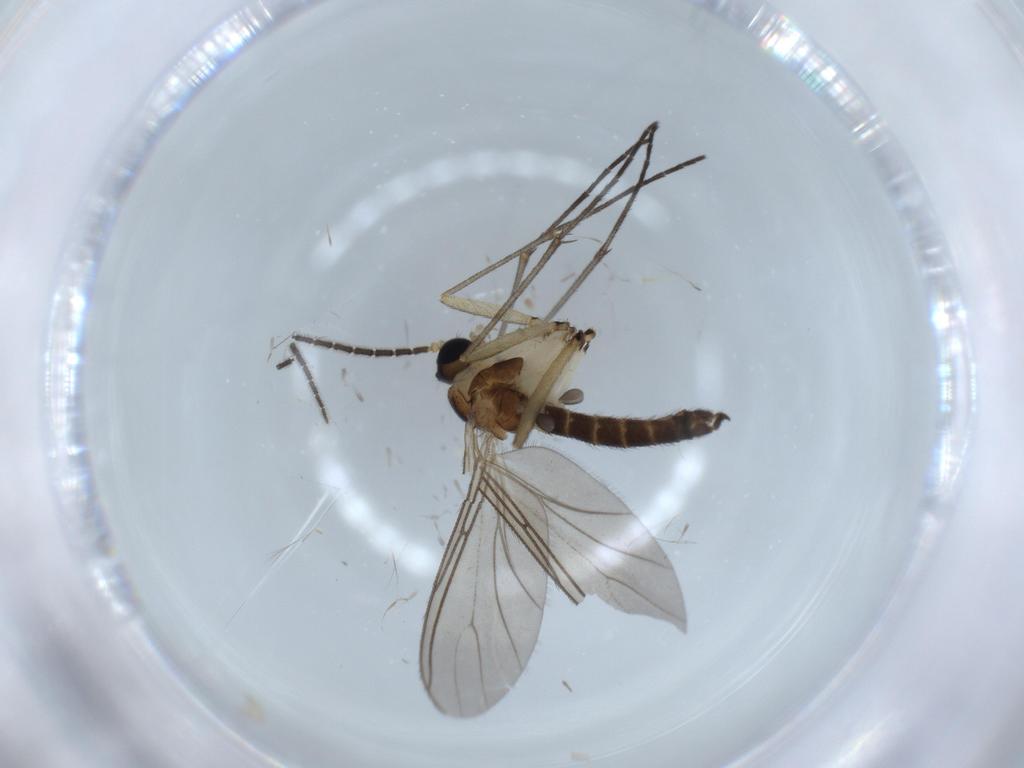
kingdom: Animalia
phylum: Arthropoda
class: Insecta
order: Diptera
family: Sciaridae
